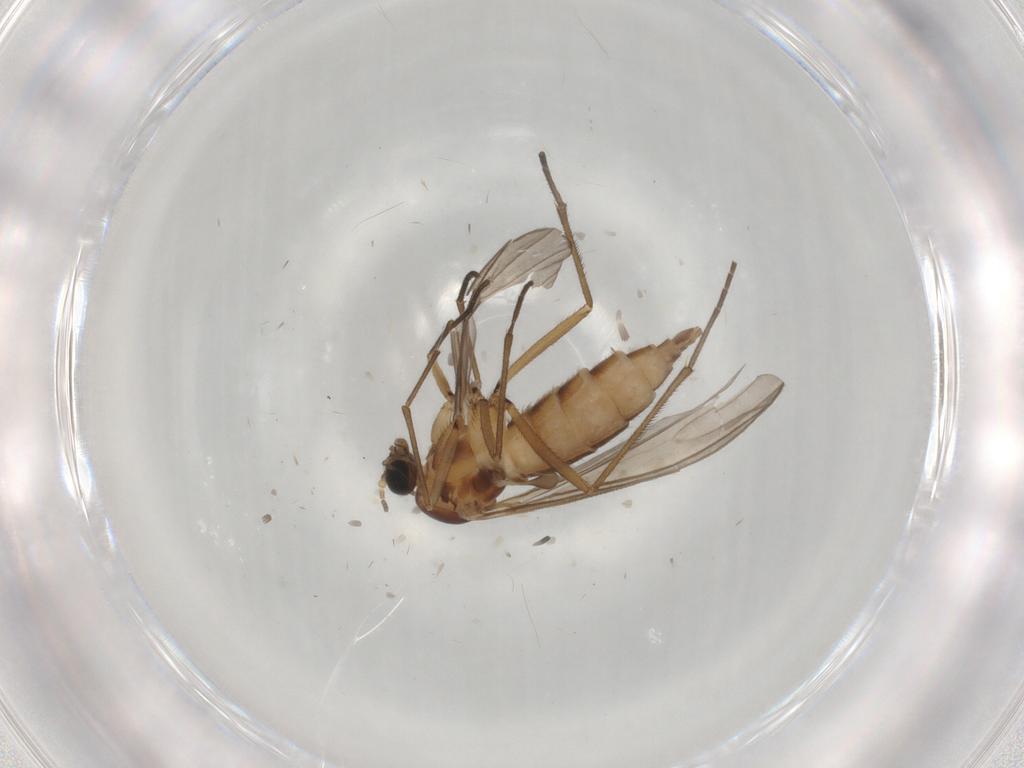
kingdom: Animalia
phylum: Arthropoda
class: Insecta
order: Diptera
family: Sciaridae
